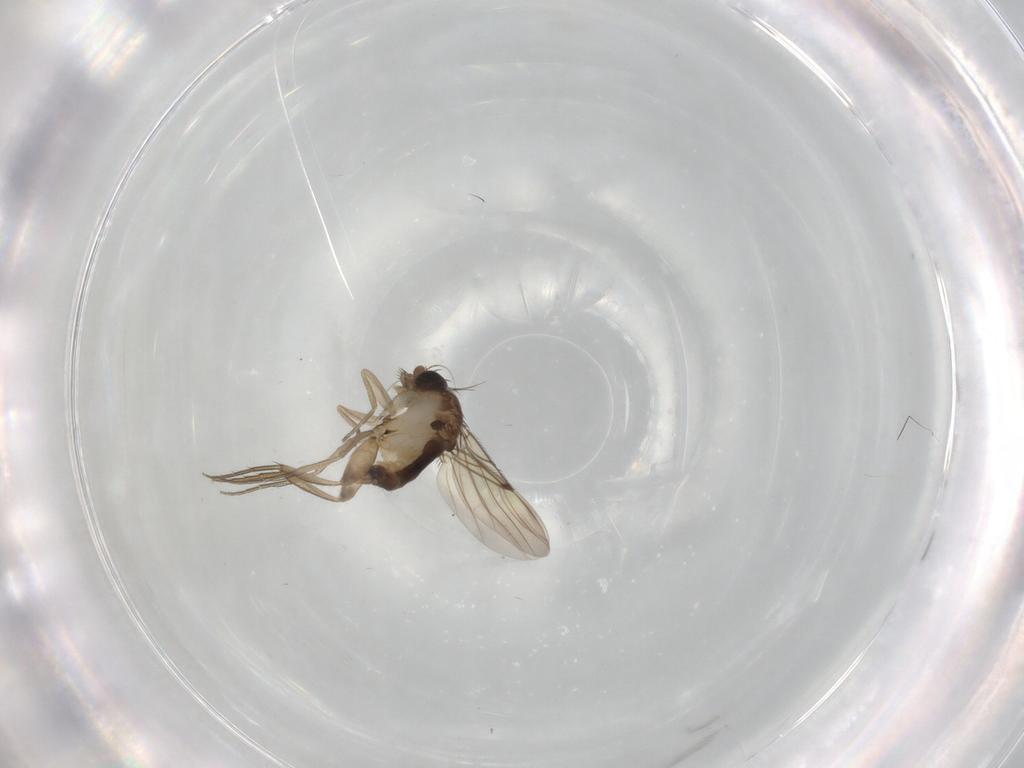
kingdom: Animalia
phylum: Arthropoda
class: Insecta
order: Diptera
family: Phoridae
